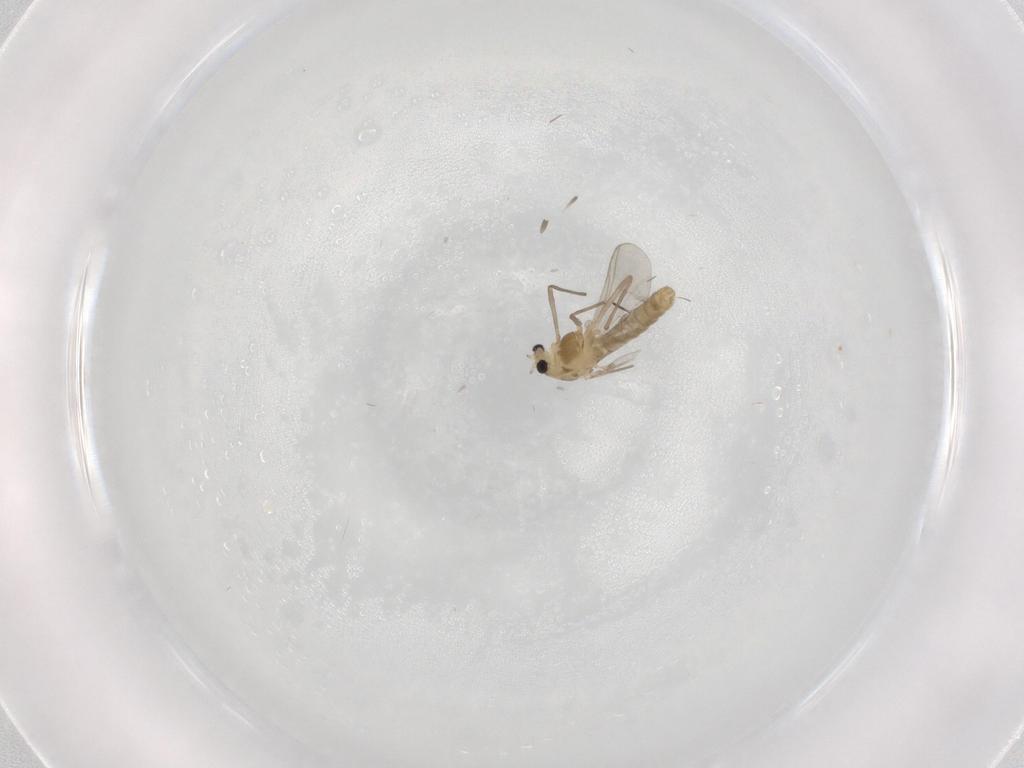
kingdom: Animalia
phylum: Arthropoda
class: Insecta
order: Diptera
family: Chironomidae
